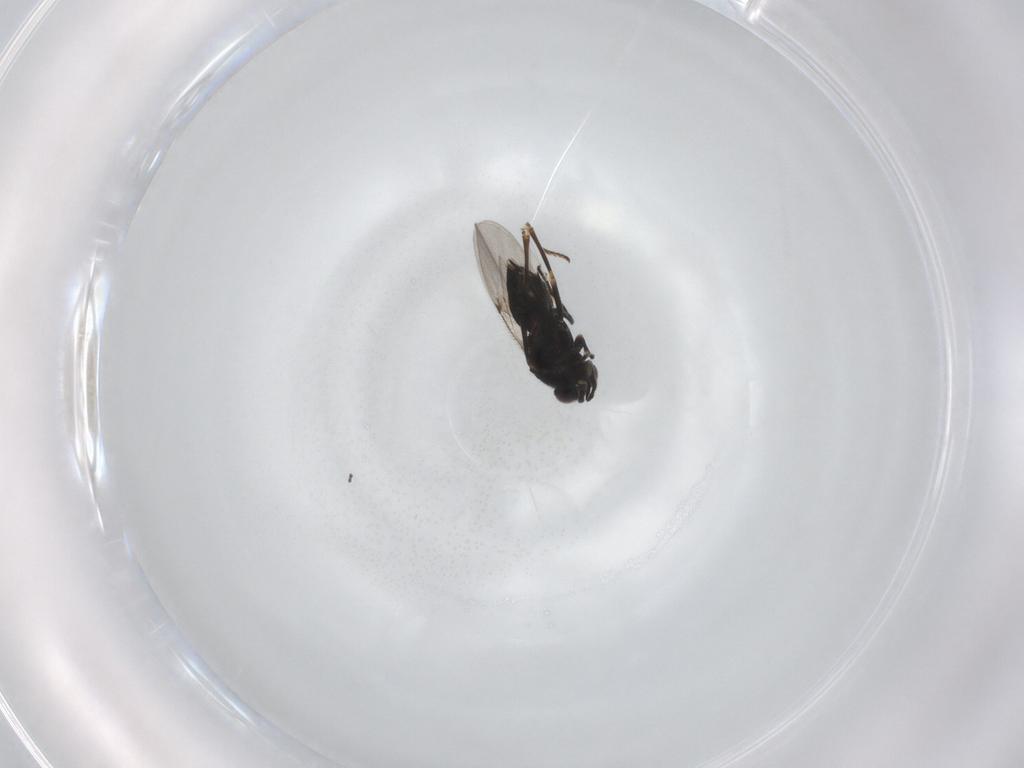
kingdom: Animalia
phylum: Arthropoda
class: Insecta
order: Hymenoptera
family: Encyrtidae
